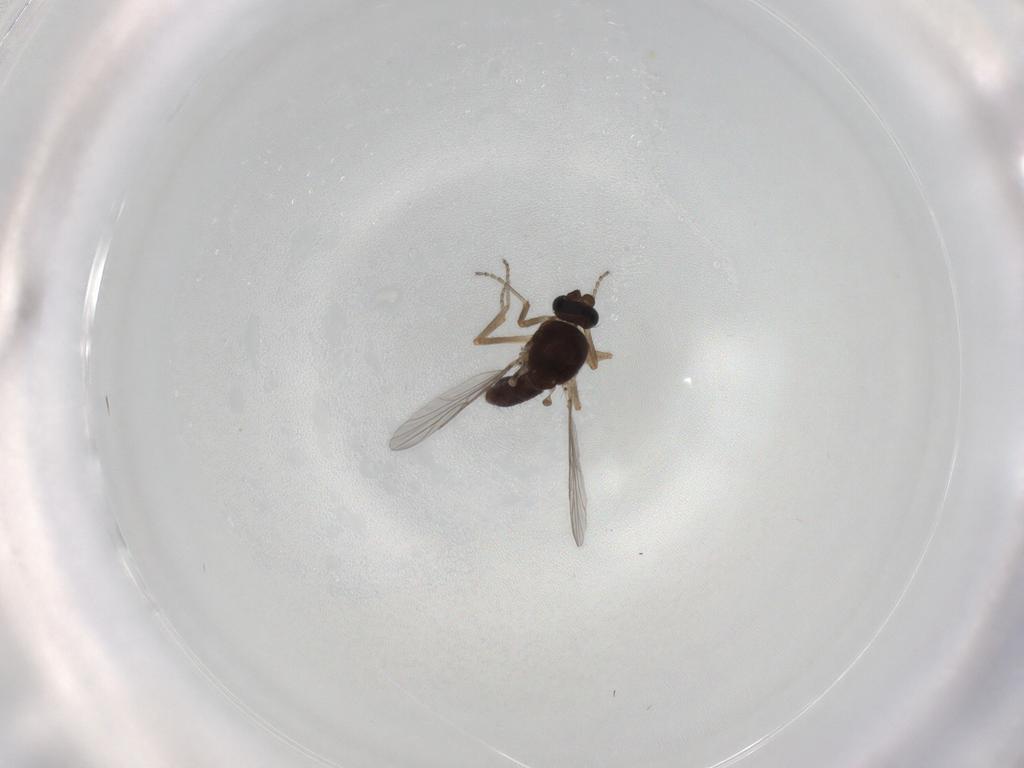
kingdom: Animalia
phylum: Arthropoda
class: Insecta
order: Diptera
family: Ceratopogonidae
